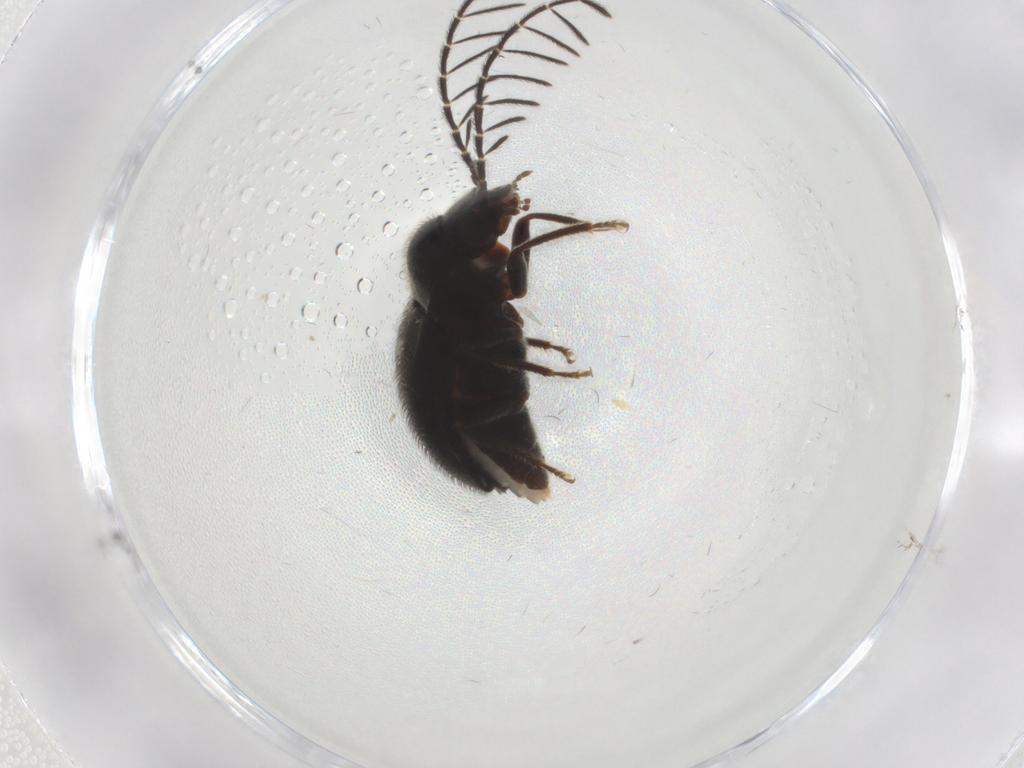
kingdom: Animalia
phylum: Arthropoda
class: Insecta
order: Coleoptera
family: Ptilodactylidae
